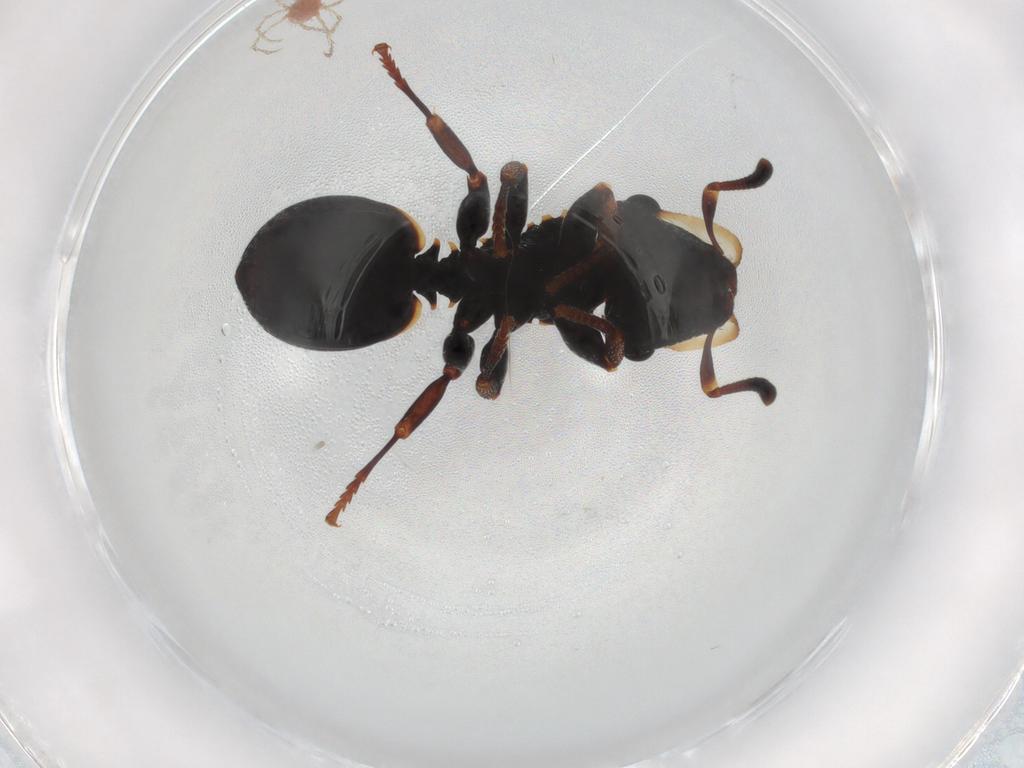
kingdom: Animalia
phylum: Arthropoda
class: Insecta
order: Hymenoptera
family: Formicidae
